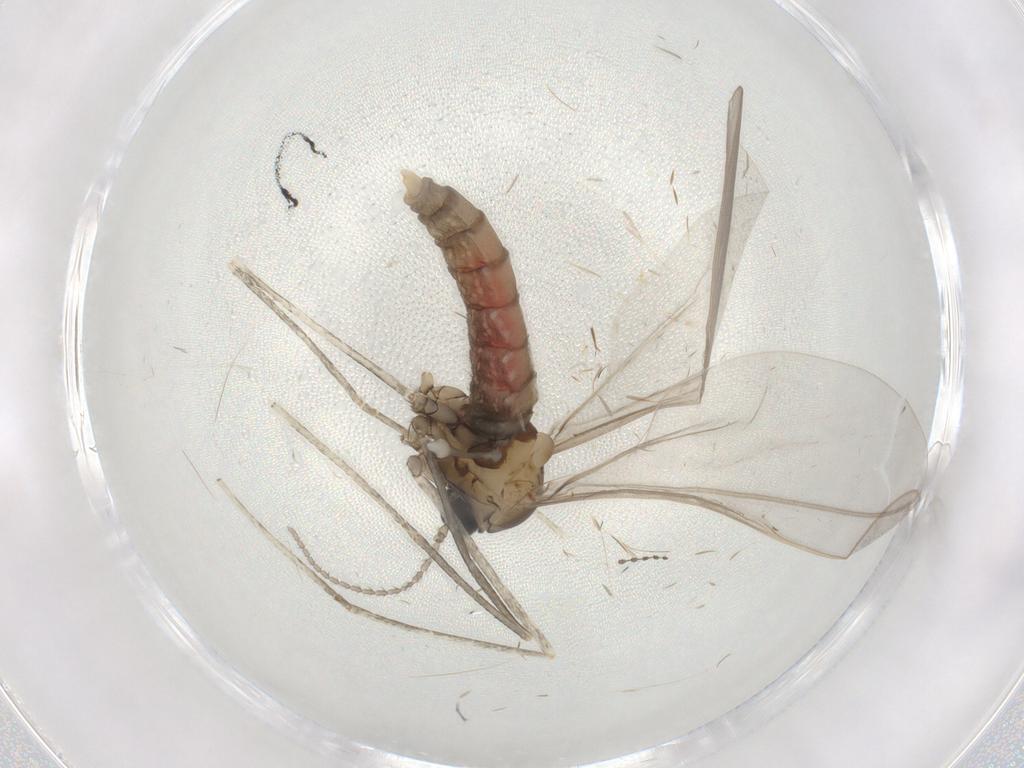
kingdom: Animalia
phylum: Arthropoda
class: Insecta
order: Diptera
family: Cecidomyiidae
